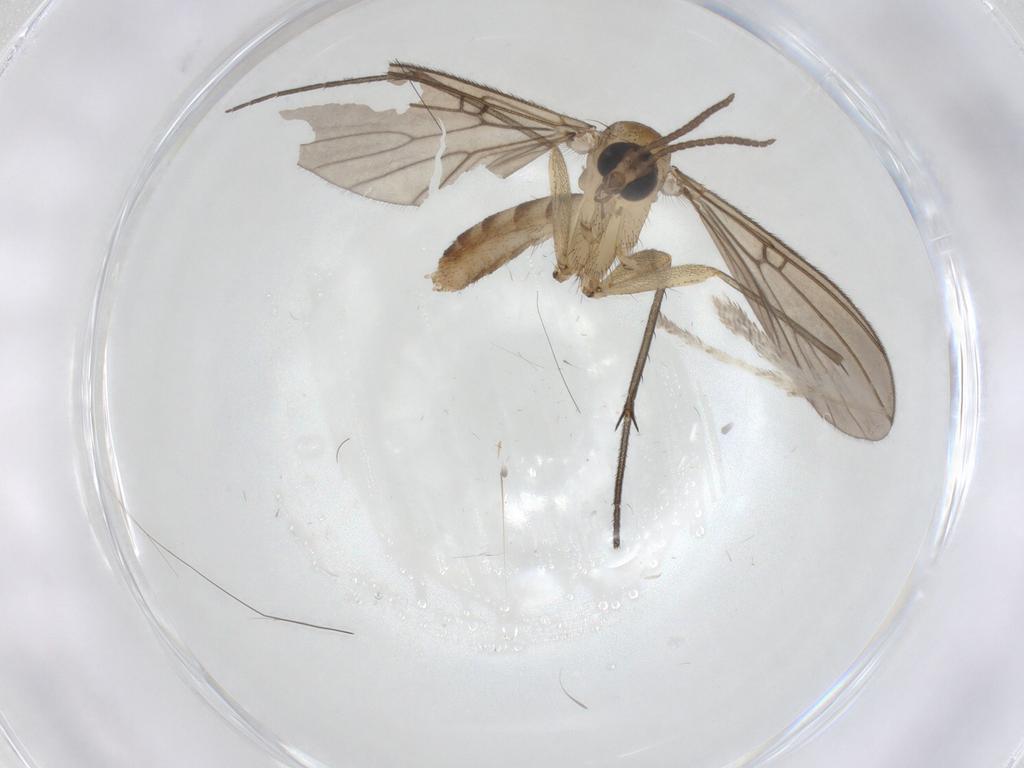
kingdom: Animalia
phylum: Arthropoda
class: Insecta
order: Diptera
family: Mycetophilidae
